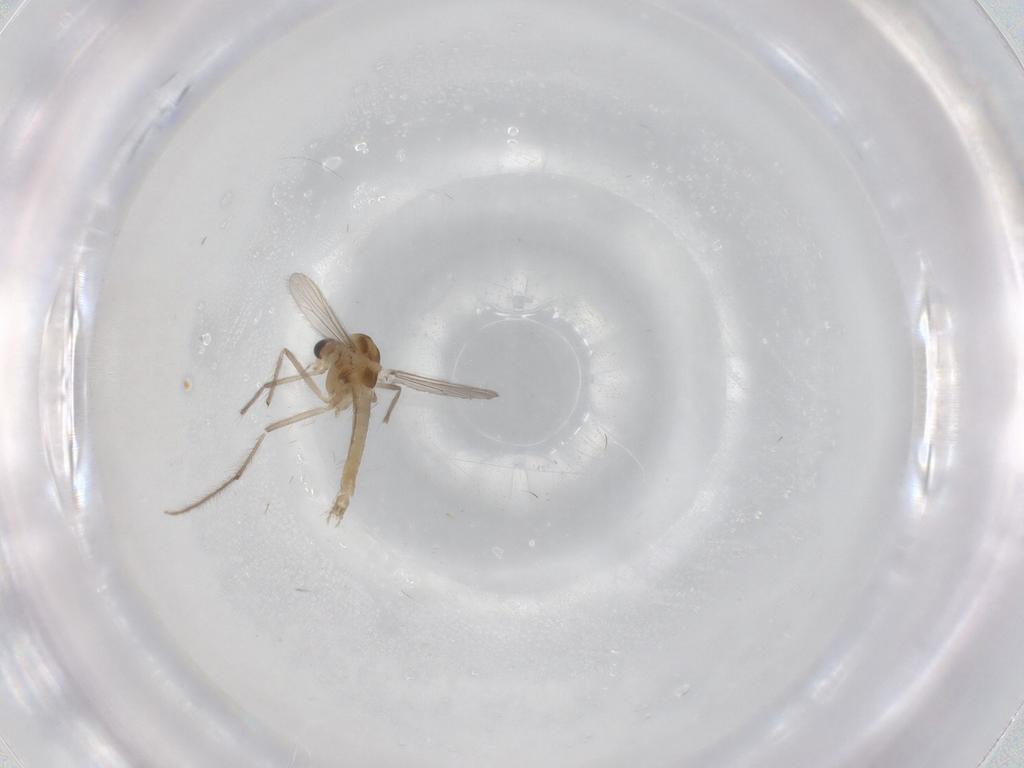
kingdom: Animalia
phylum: Arthropoda
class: Insecta
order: Diptera
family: Chironomidae
